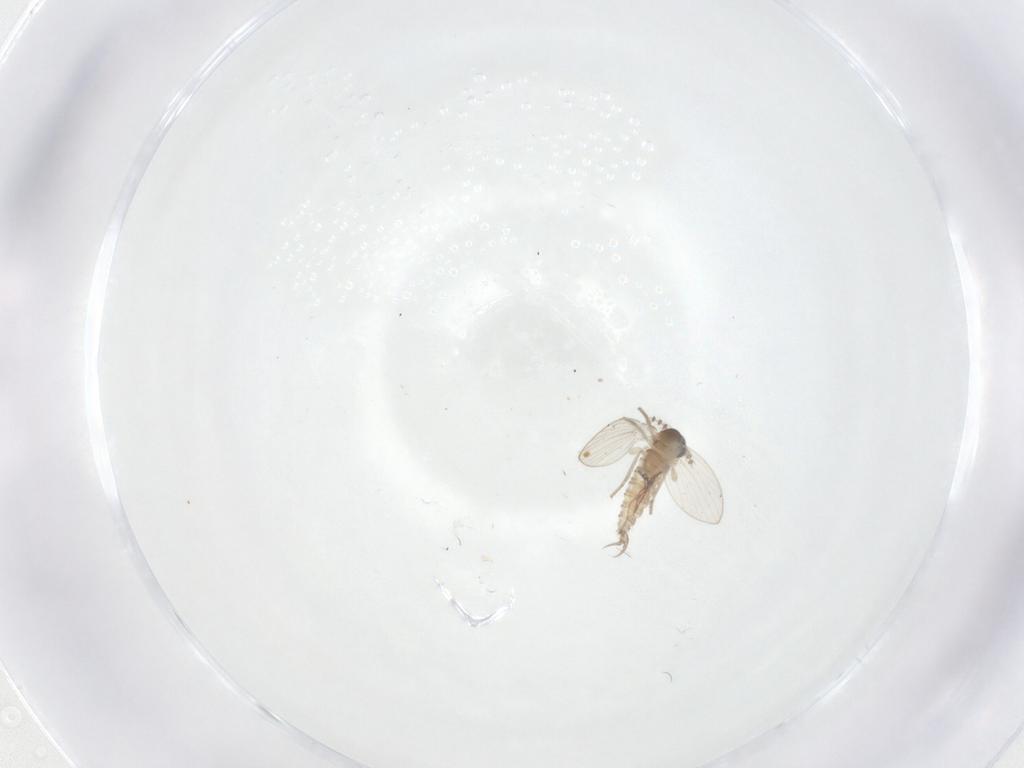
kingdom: Animalia
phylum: Arthropoda
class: Insecta
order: Diptera
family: Psychodidae
